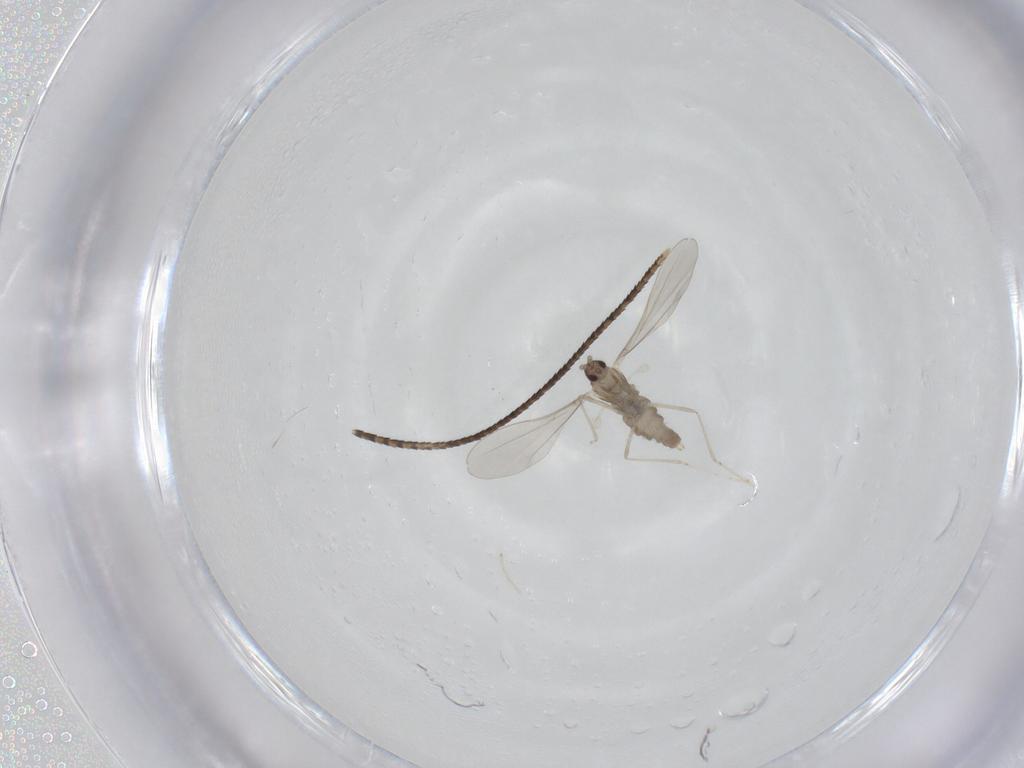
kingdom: Animalia
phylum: Arthropoda
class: Insecta
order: Diptera
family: Cecidomyiidae
